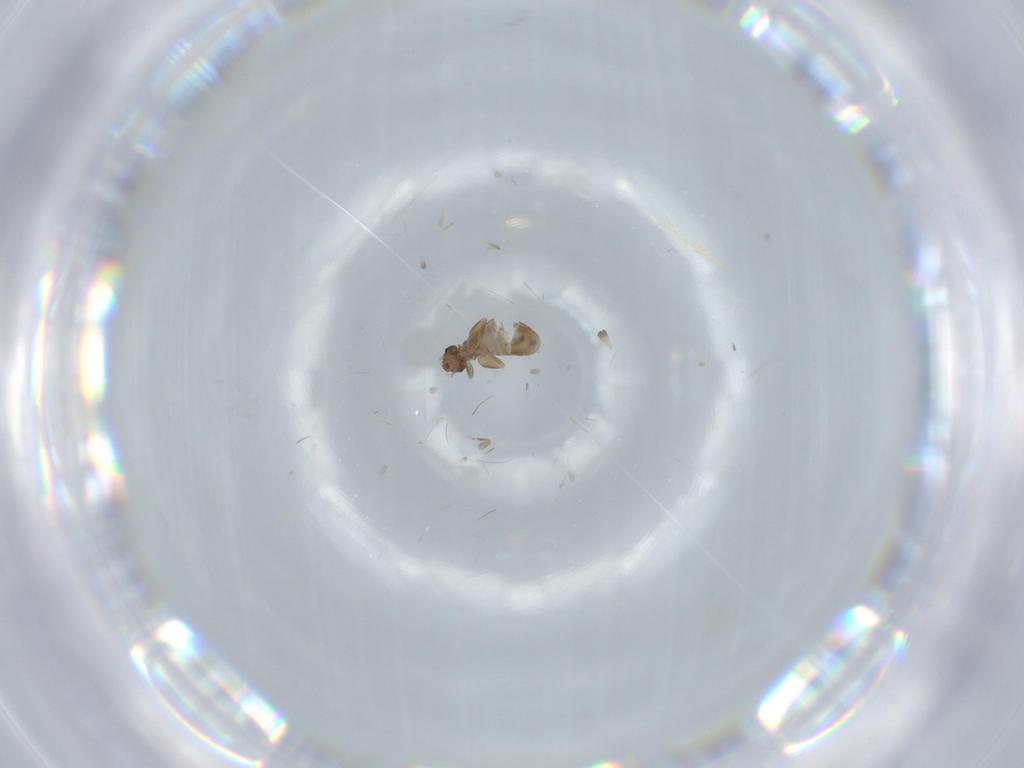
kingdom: Animalia
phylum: Arthropoda
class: Insecta
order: Psocodea
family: Liposcelididae
